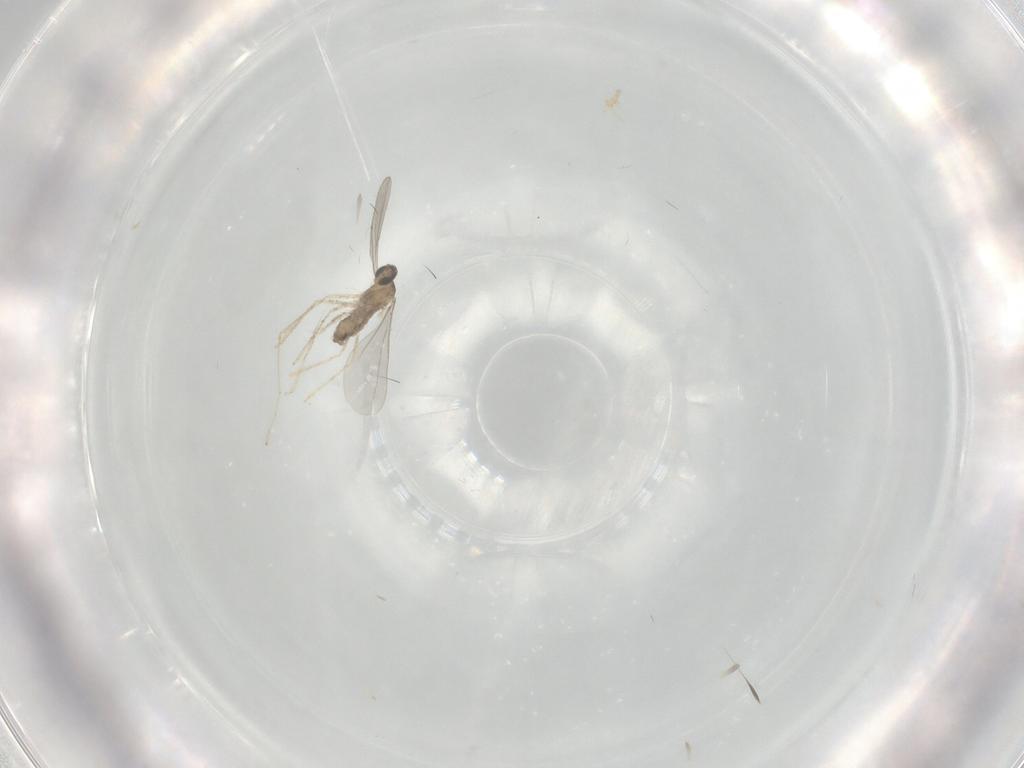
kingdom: Animalia
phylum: Arthropoda
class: Insecta
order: Diptera
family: Cecidomyiidae
